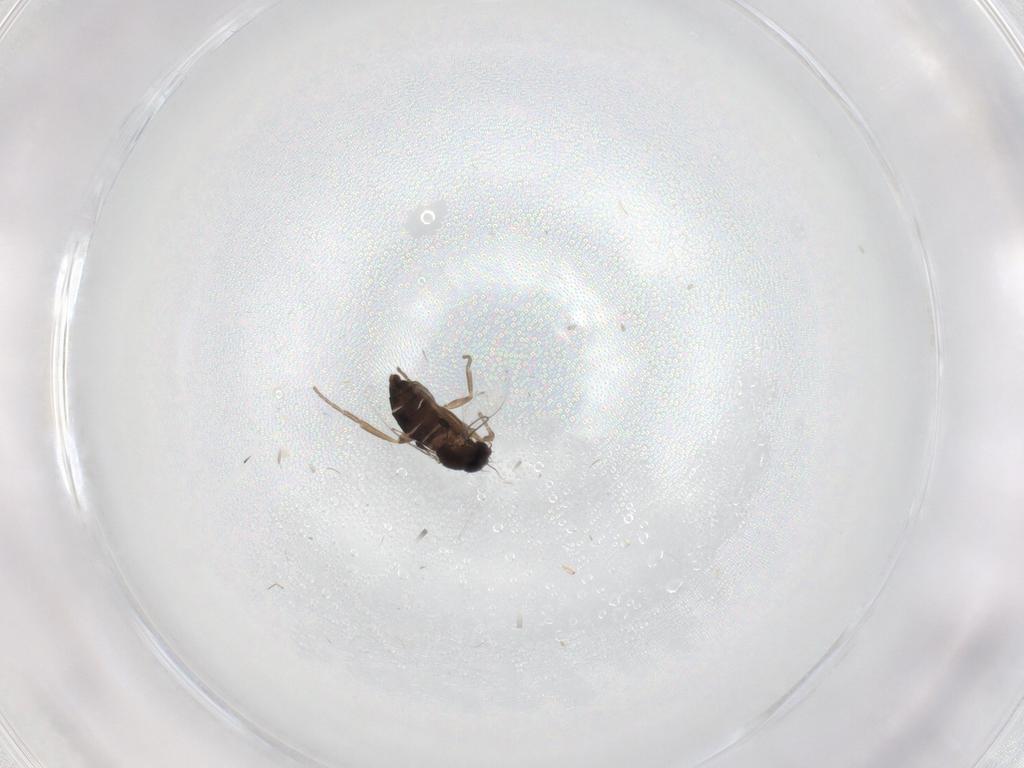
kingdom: Animalia
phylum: Arthropoda
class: Insecta
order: Diptera
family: Phoridae
